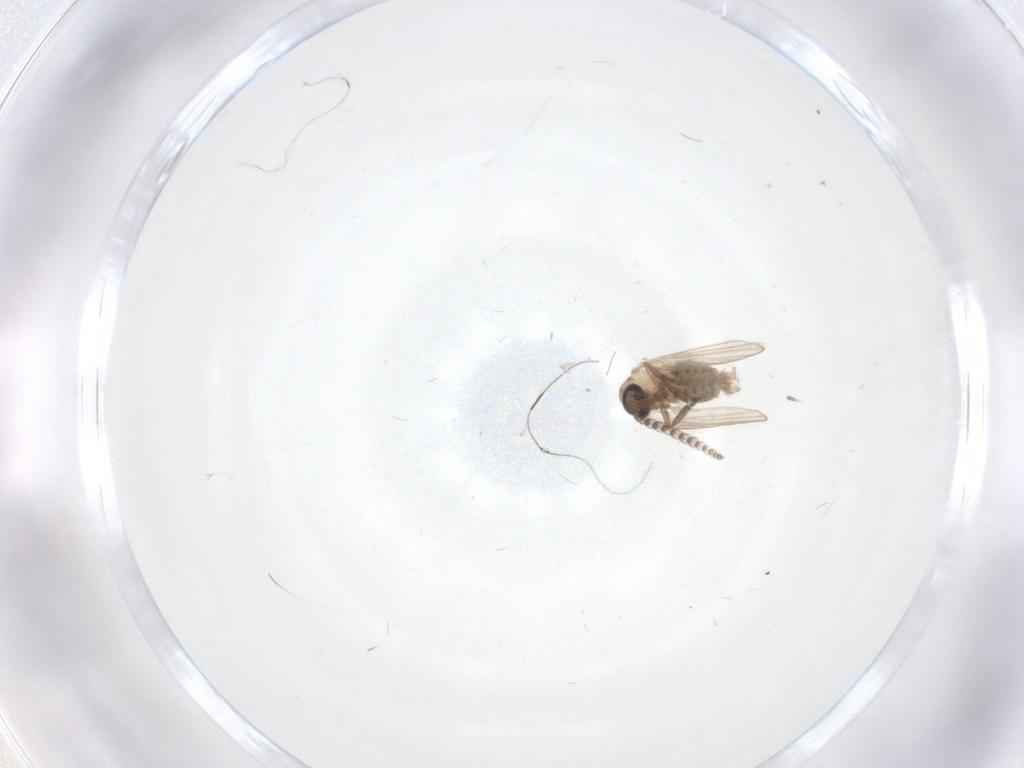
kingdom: Animalia
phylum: Arthropoda
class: Insecta
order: Diptera
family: Psychodidae
